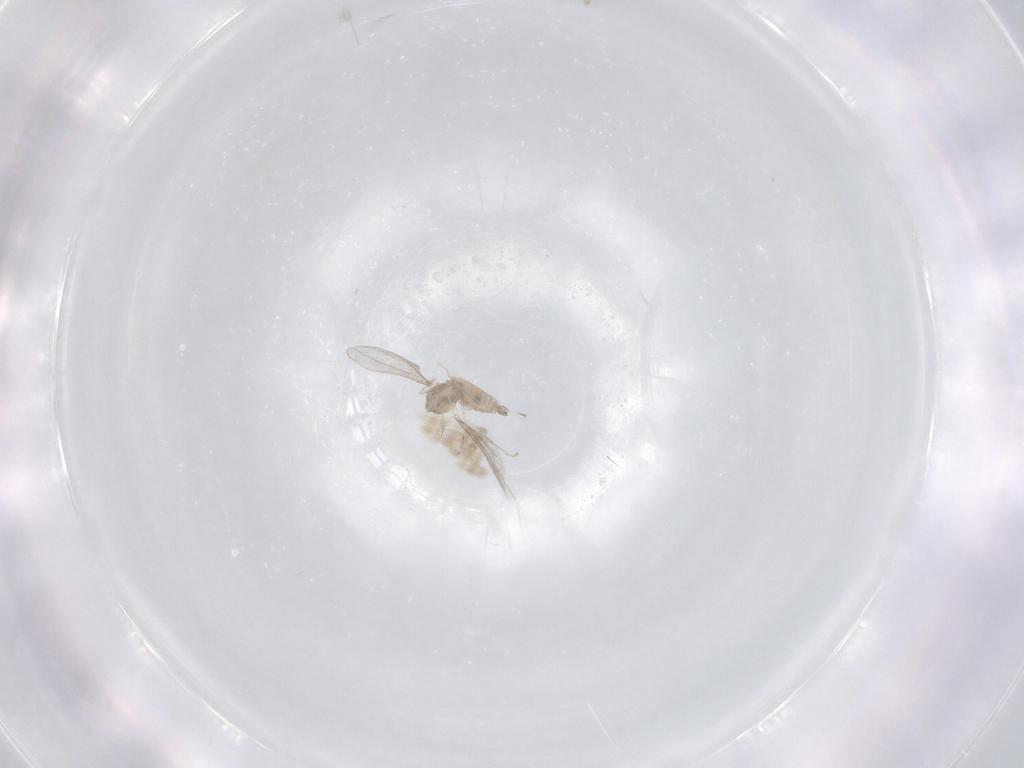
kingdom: Animalia
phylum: Arthropoda
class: Insecta
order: Diptera
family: Cecidomyiidae
